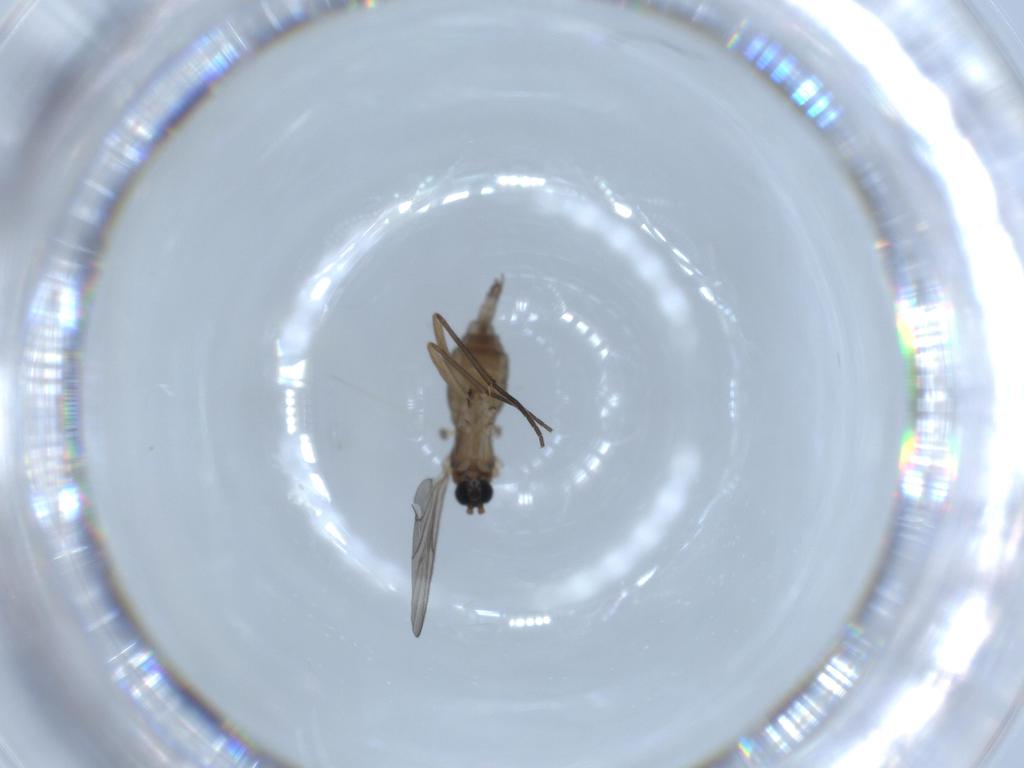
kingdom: Animalia
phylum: Arthropoda
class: Insecta
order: Diptera
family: Sciaridae
